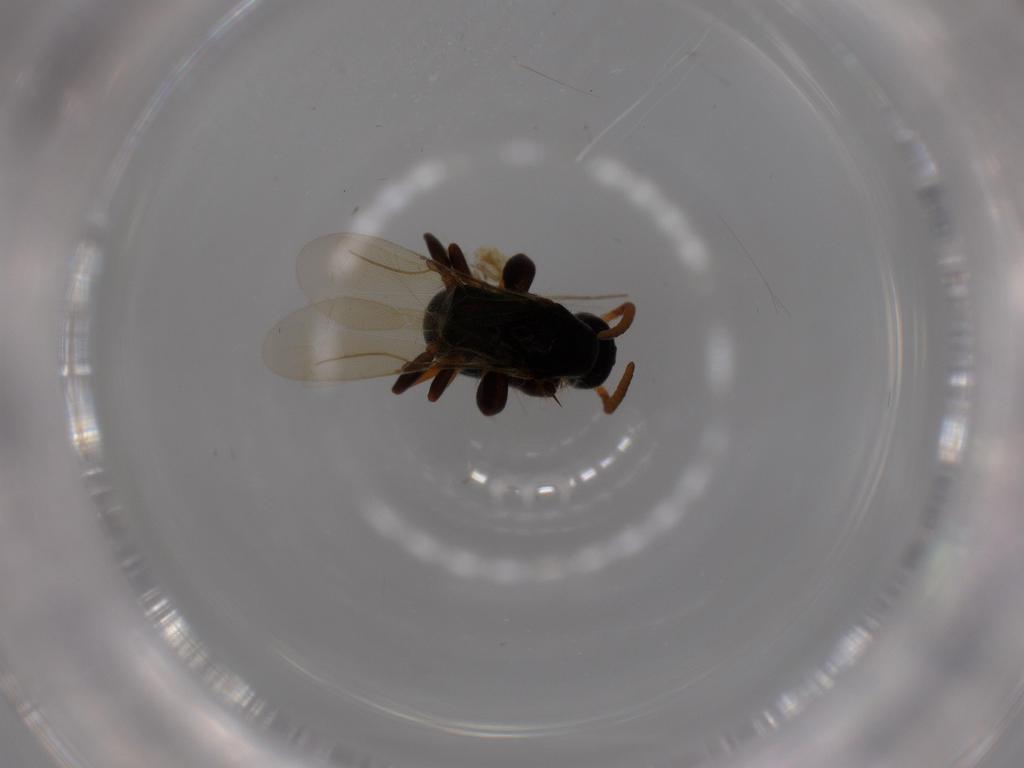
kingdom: Animalia
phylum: Arthropoda
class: Insecta
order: Hymenoptera
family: Bethylidae
